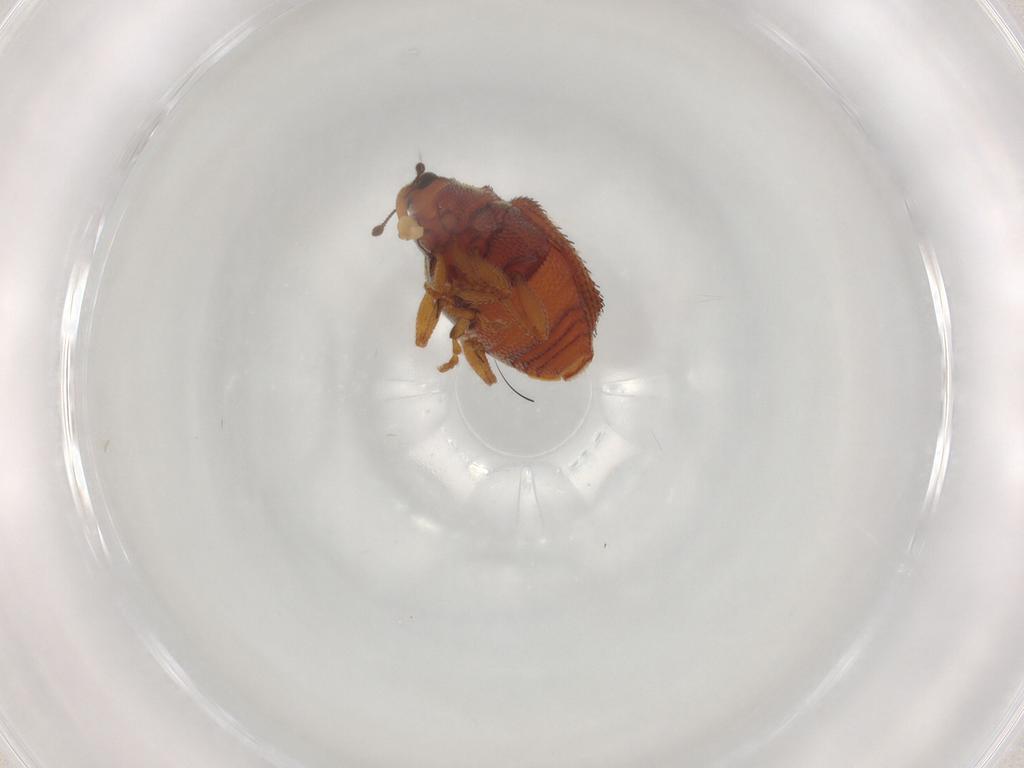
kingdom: Animalia
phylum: Arthropoda
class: Insecta
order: Coleoptera
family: Curculionidae
